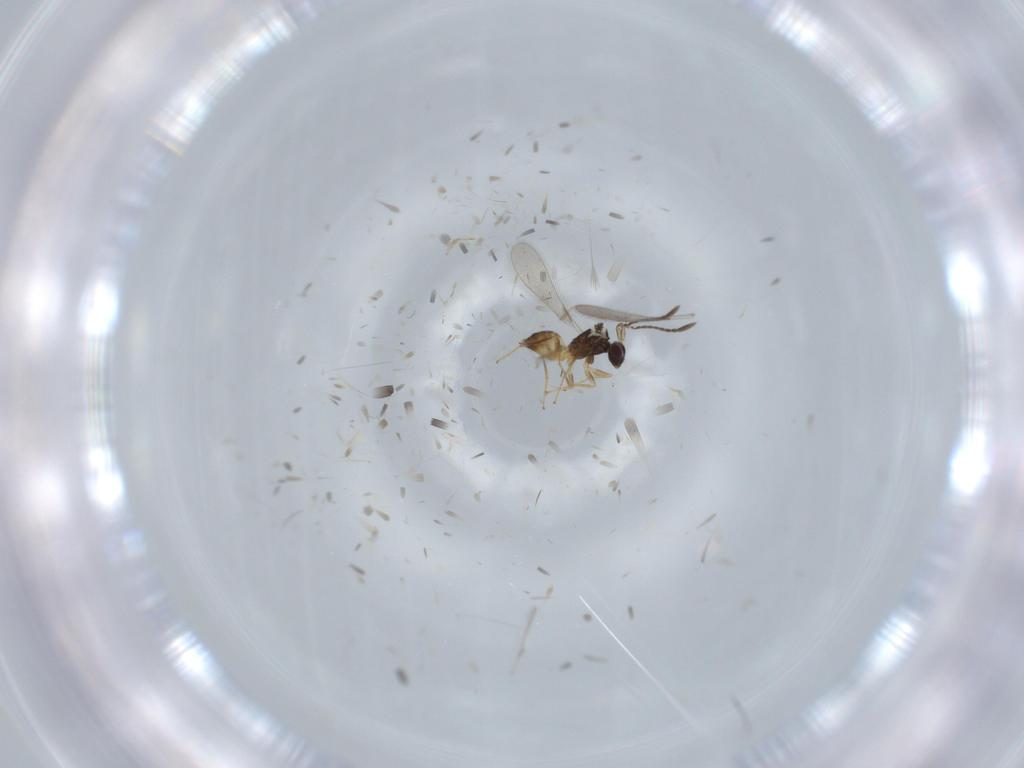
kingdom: Animalia
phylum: Arthropoda
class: Insecta
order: Hymenoptera
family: Mymaridae
